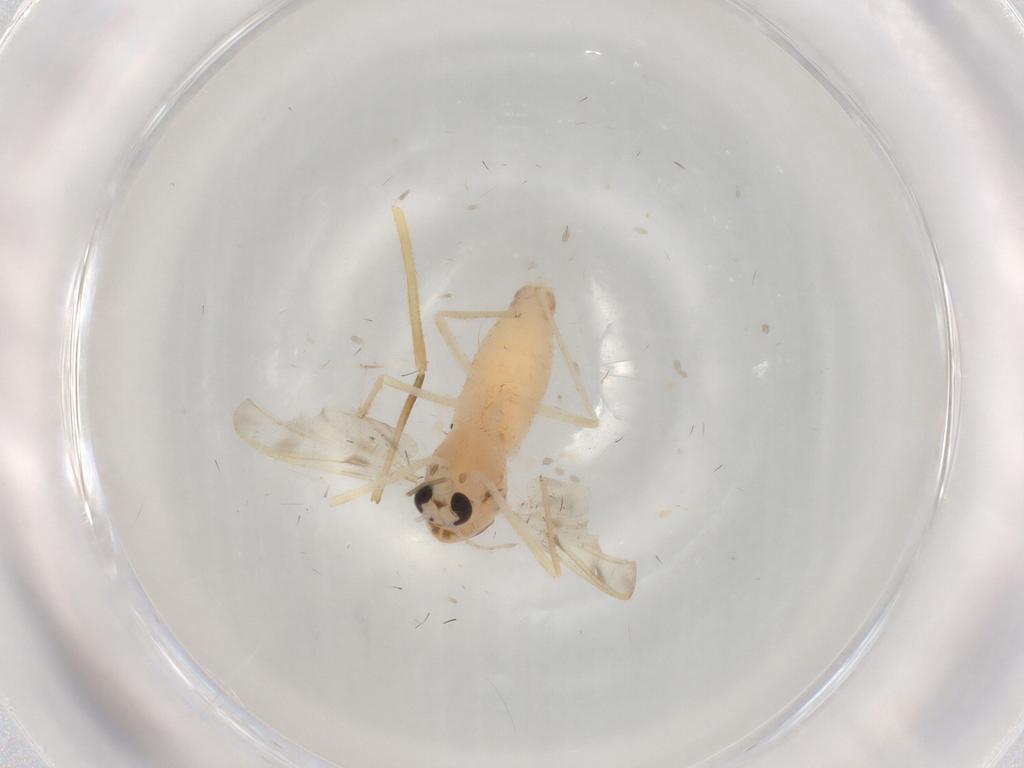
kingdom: Animalia
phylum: Arthropoda
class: Insecta
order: Diptera
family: Chironomidae
